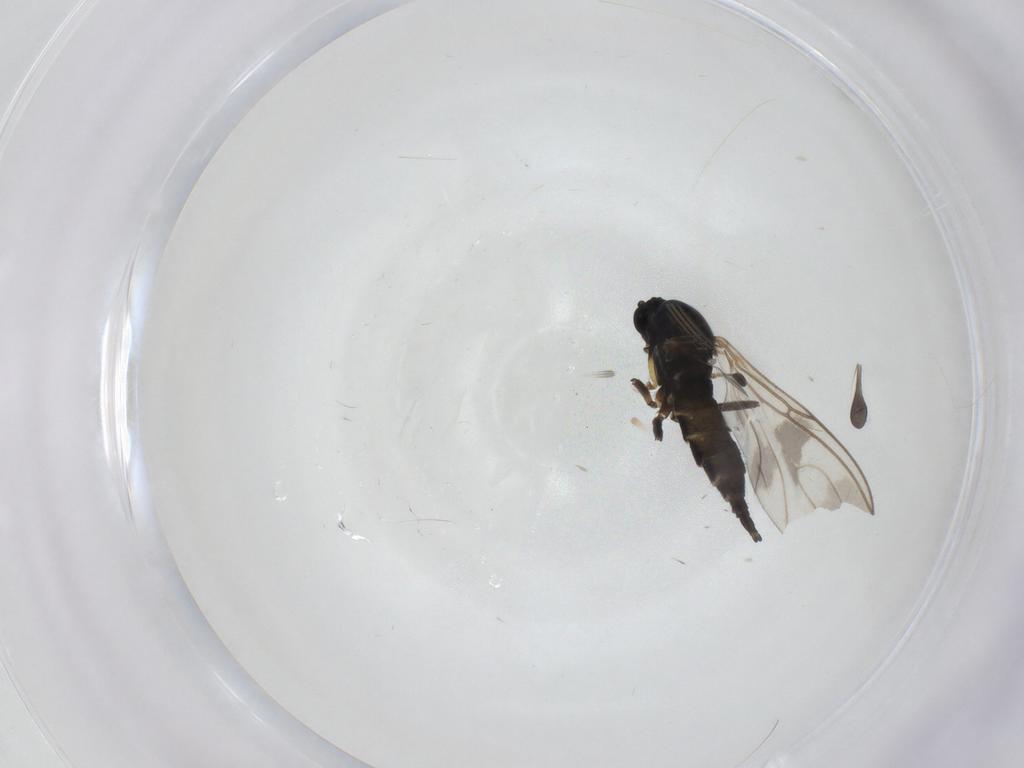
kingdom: Animalia
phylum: Arthropoda
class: Insecta
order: Diptera
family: Sciaridae
